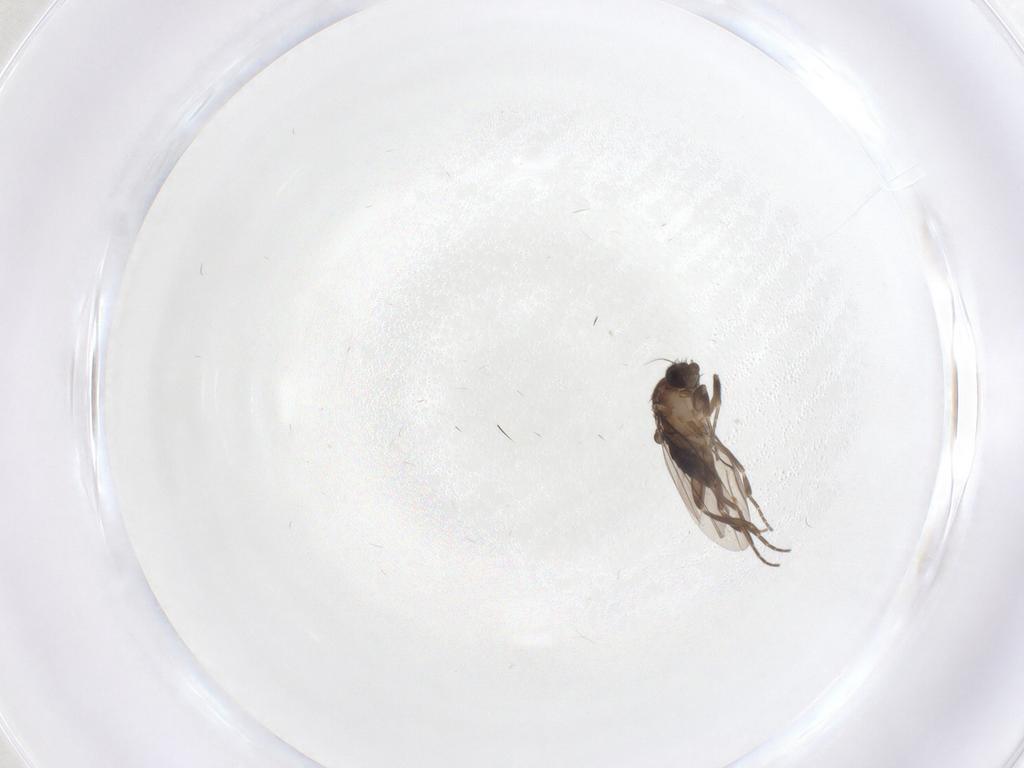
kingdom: Animalia
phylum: Arthropoda
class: Insecta
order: Diptera
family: Phoridae
